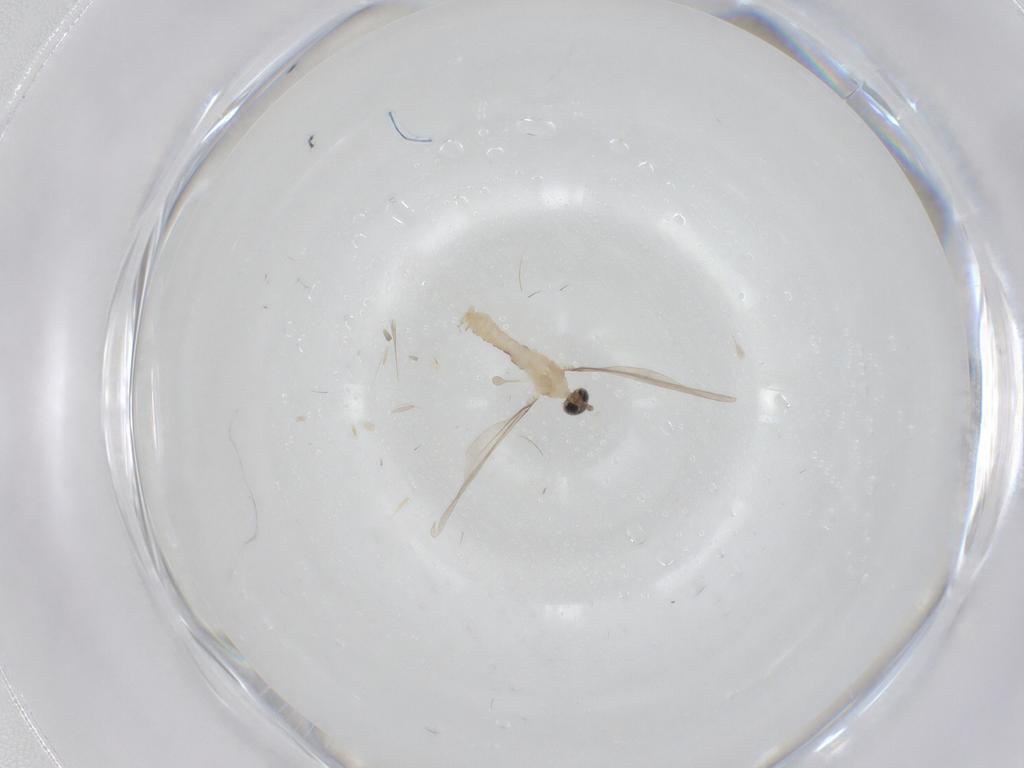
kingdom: Animalia
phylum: Arthropoda
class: Insecta
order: Diptera
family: Cecidomyiidae
